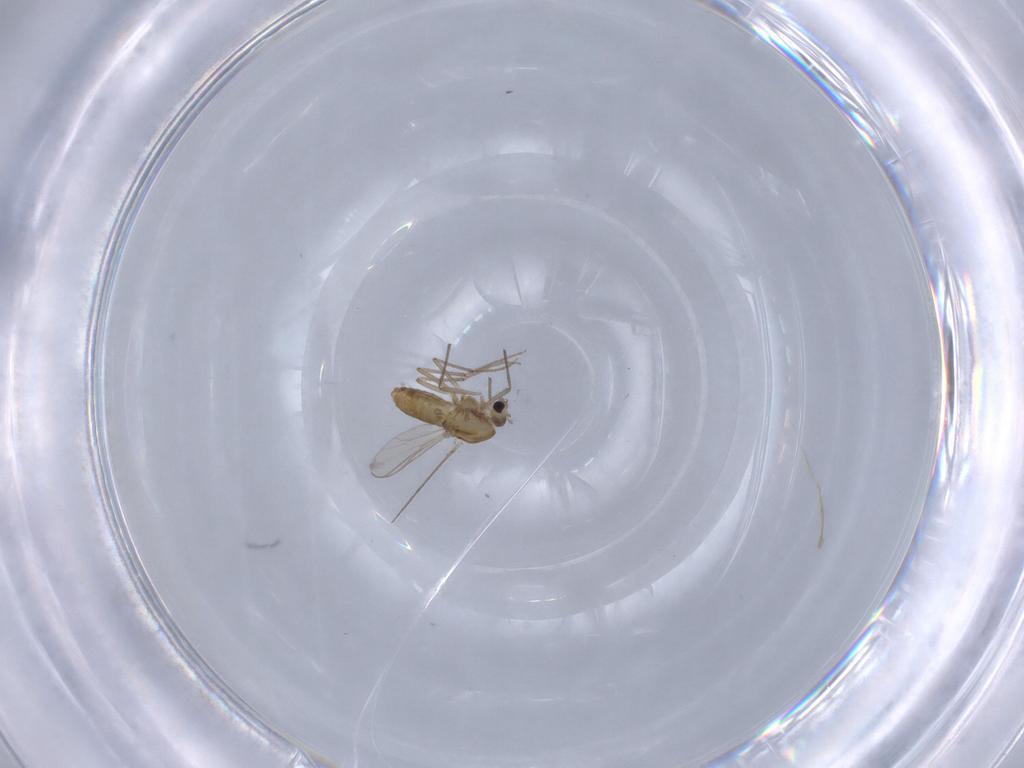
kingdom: Animalia
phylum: Arthropoda
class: Insecta
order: Diptera
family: Chironomidae
